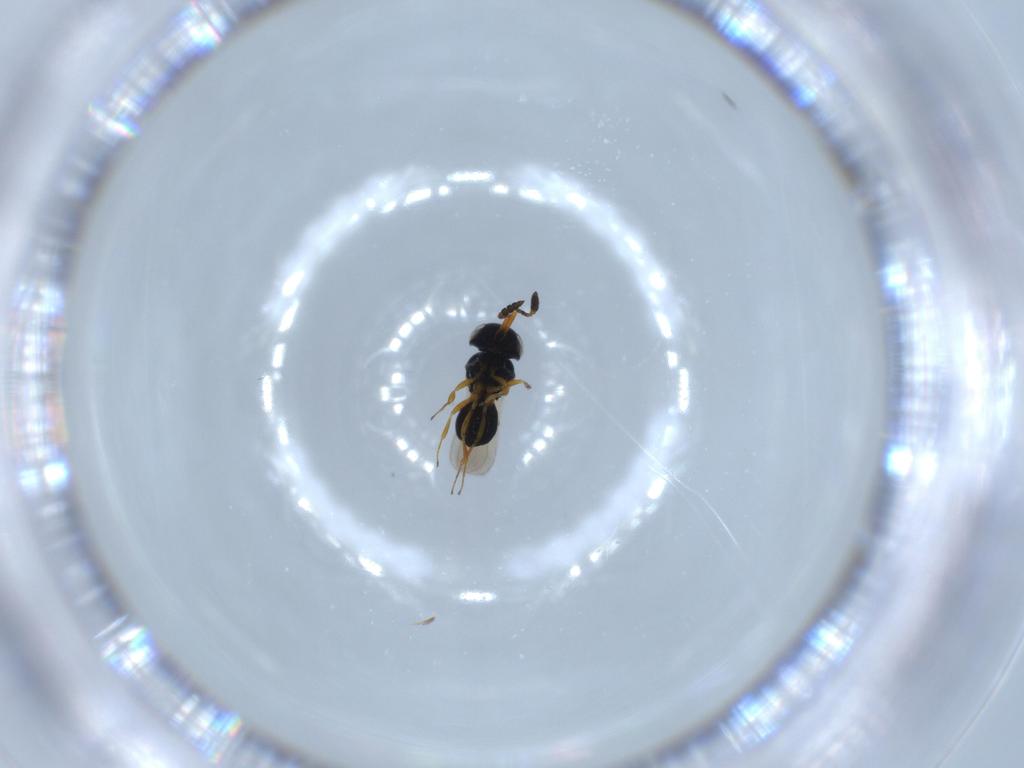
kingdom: Animalia
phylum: Arthropoda
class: Insecta
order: Hymenoptera
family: Scelionidae
